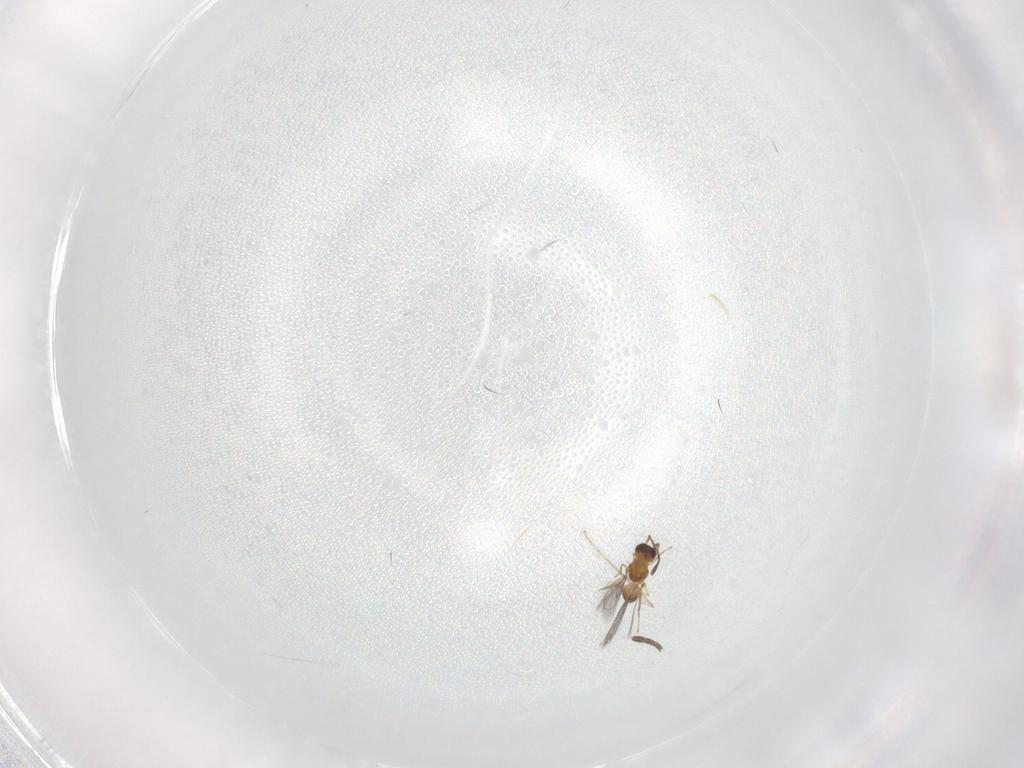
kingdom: Animalia
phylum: Arthropoda
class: Insecta
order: Hymenoptera
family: Mymaridae
